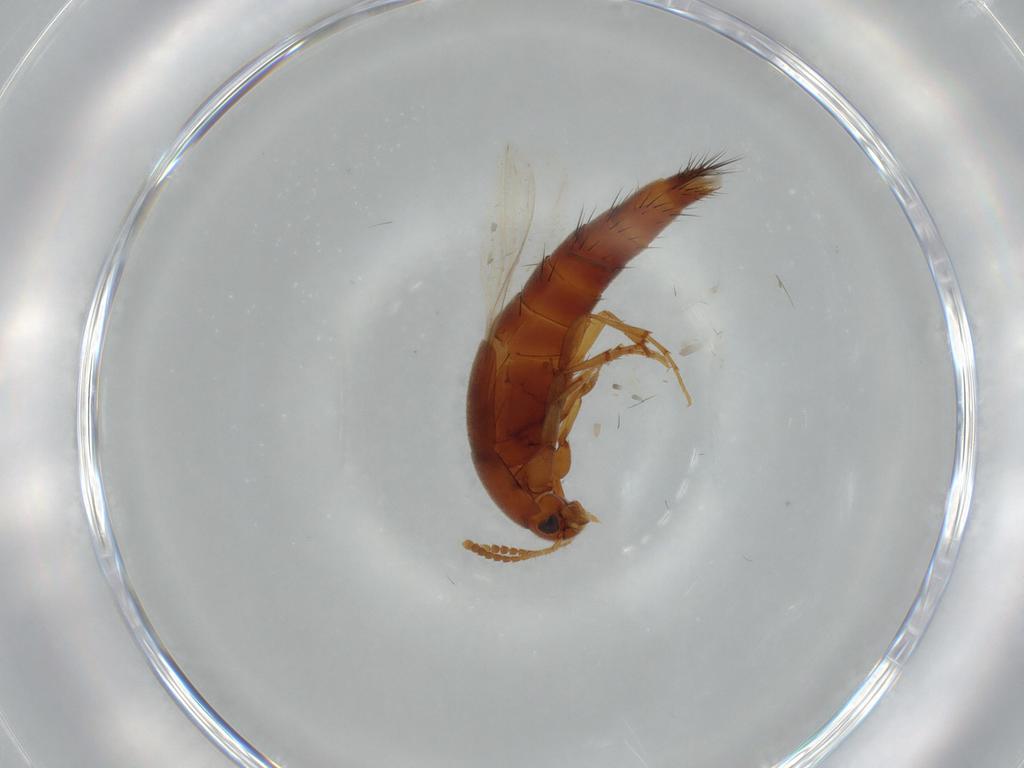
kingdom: Animalia
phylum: Arthropoda
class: Insecta
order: Coleoptera
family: Staphylinidae
